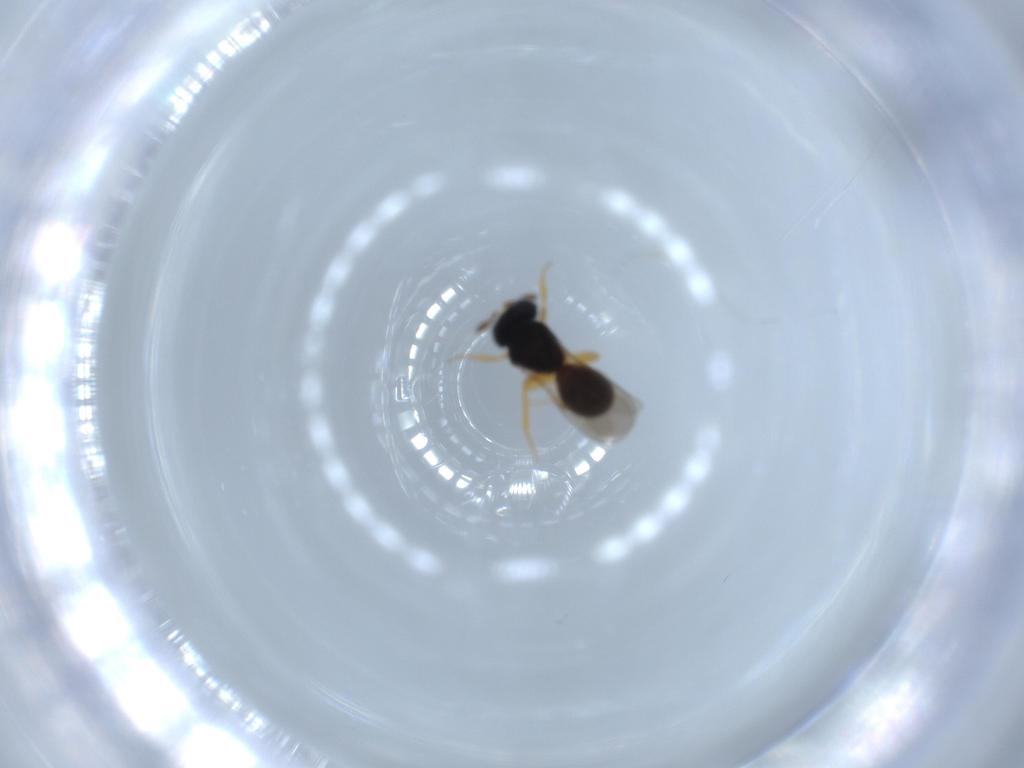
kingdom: Animalia
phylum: Arthropoda
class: Insecta
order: Hymenoptera
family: Scelionidae
